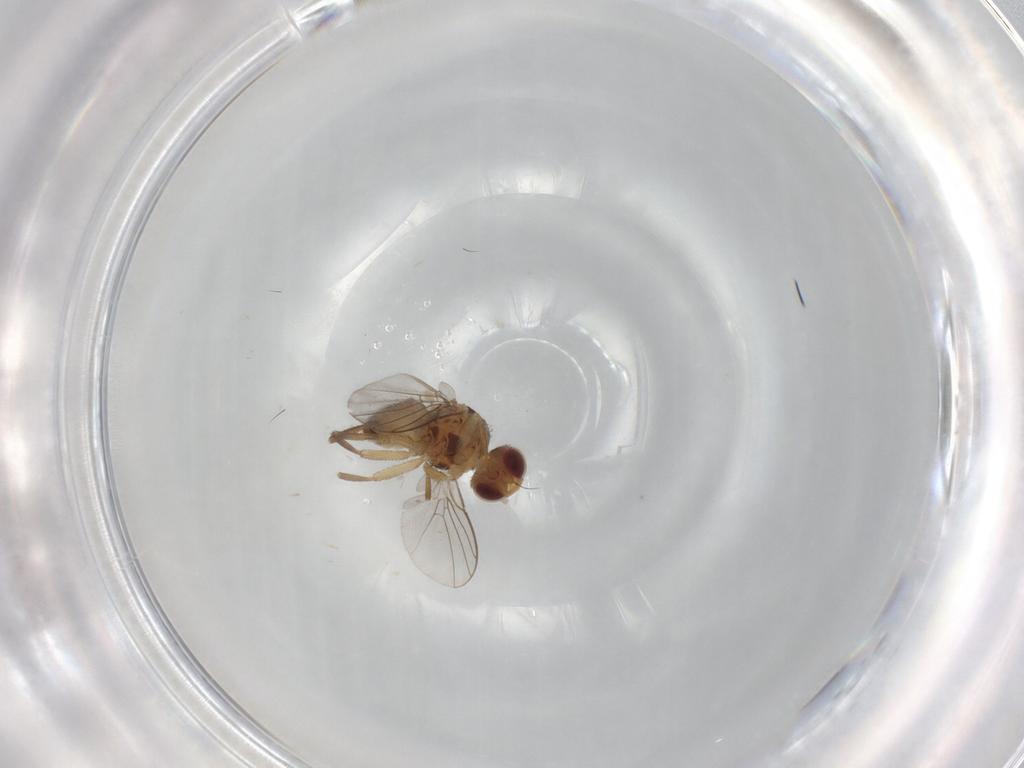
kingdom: Animalia
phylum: Arthropoda
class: Insecta
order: Diptera
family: Agromyzidae
